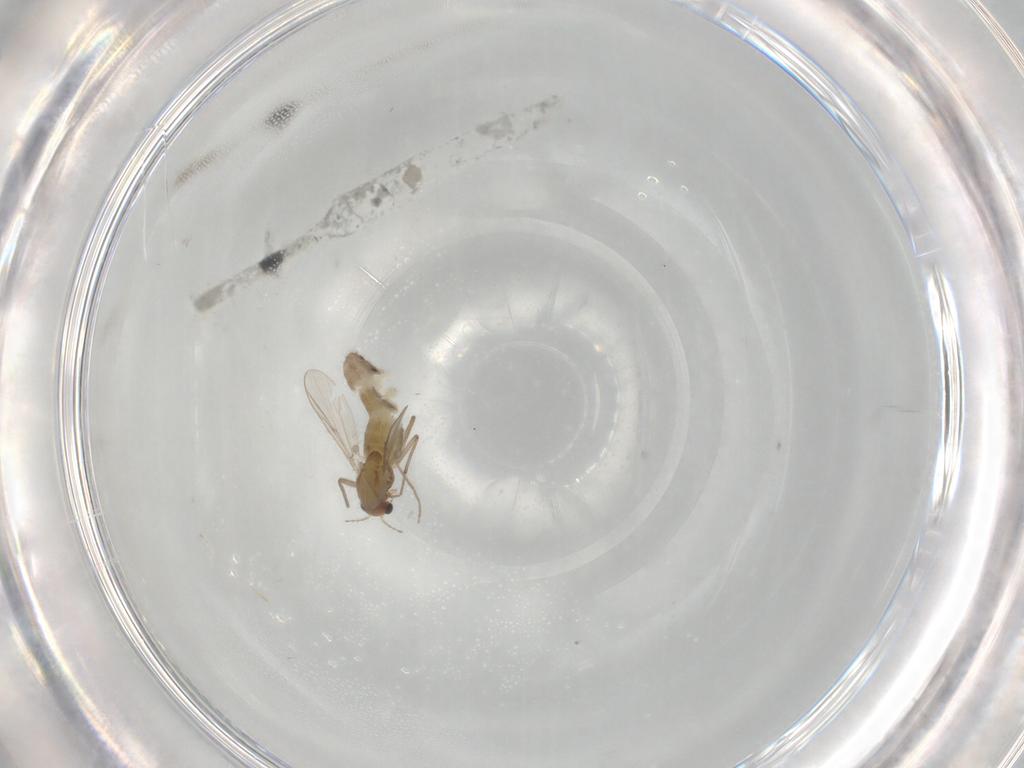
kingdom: Animalia
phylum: Arthropoda
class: Insecta
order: Diptera
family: Chironomidae
